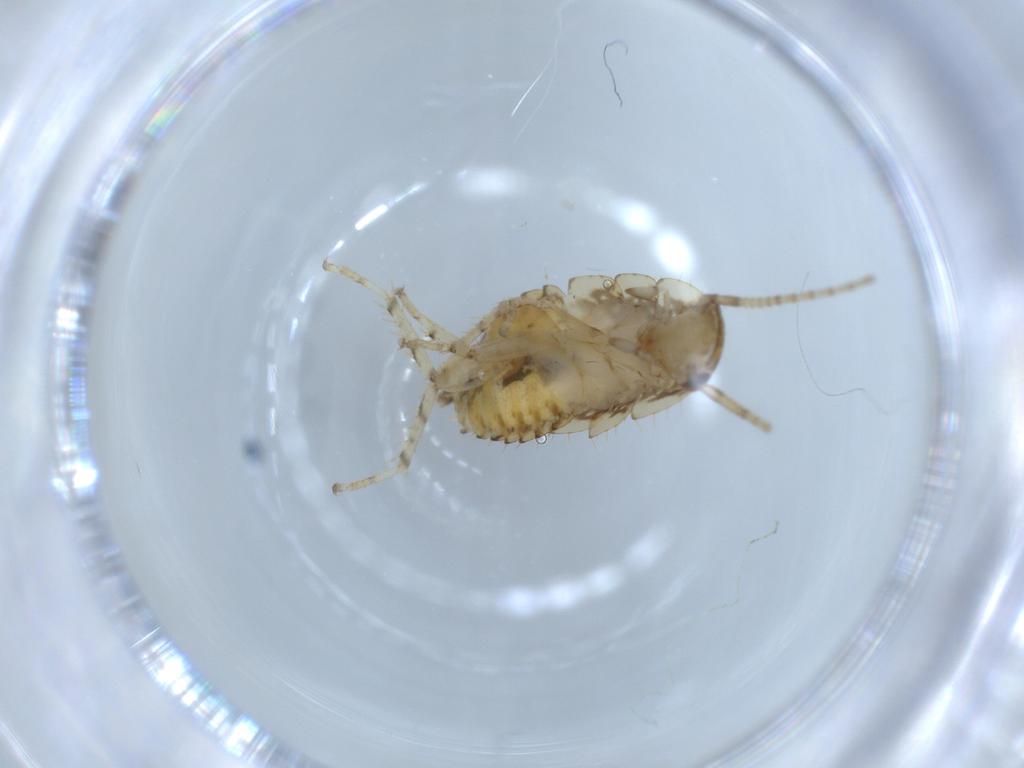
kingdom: Animalia
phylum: Arthropoda
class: Insecta
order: Blattodea
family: Ectobiidae
